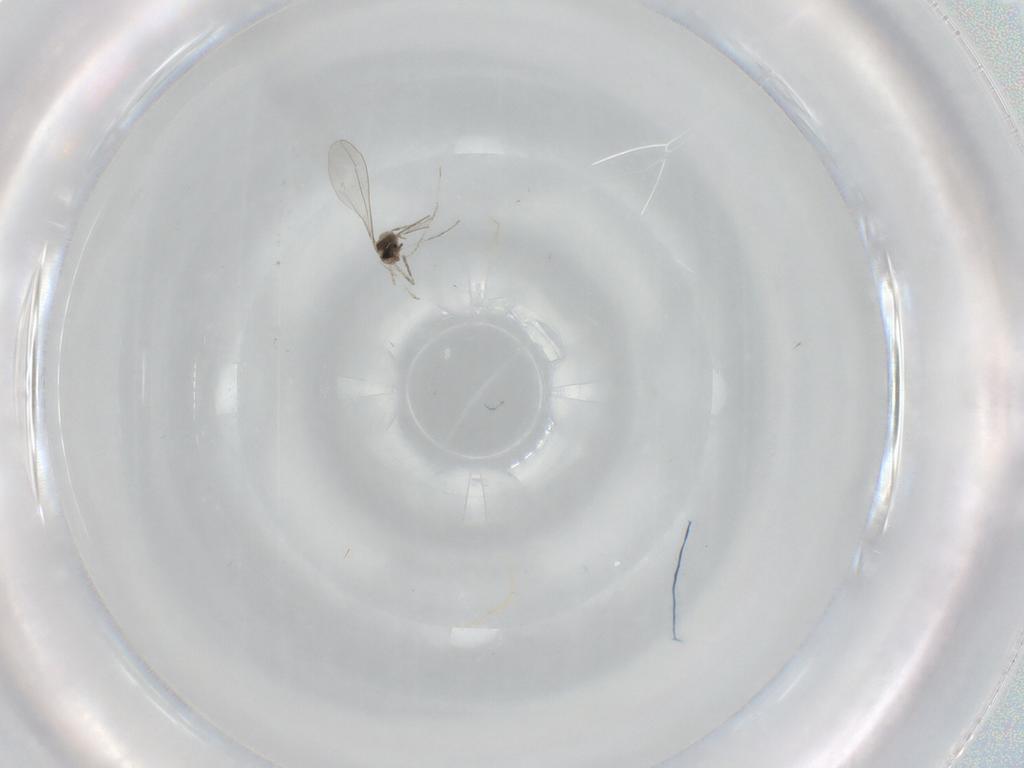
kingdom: Animalia
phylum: Arthropoda
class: Insecta
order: Diptera
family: Cecidomyiidae
